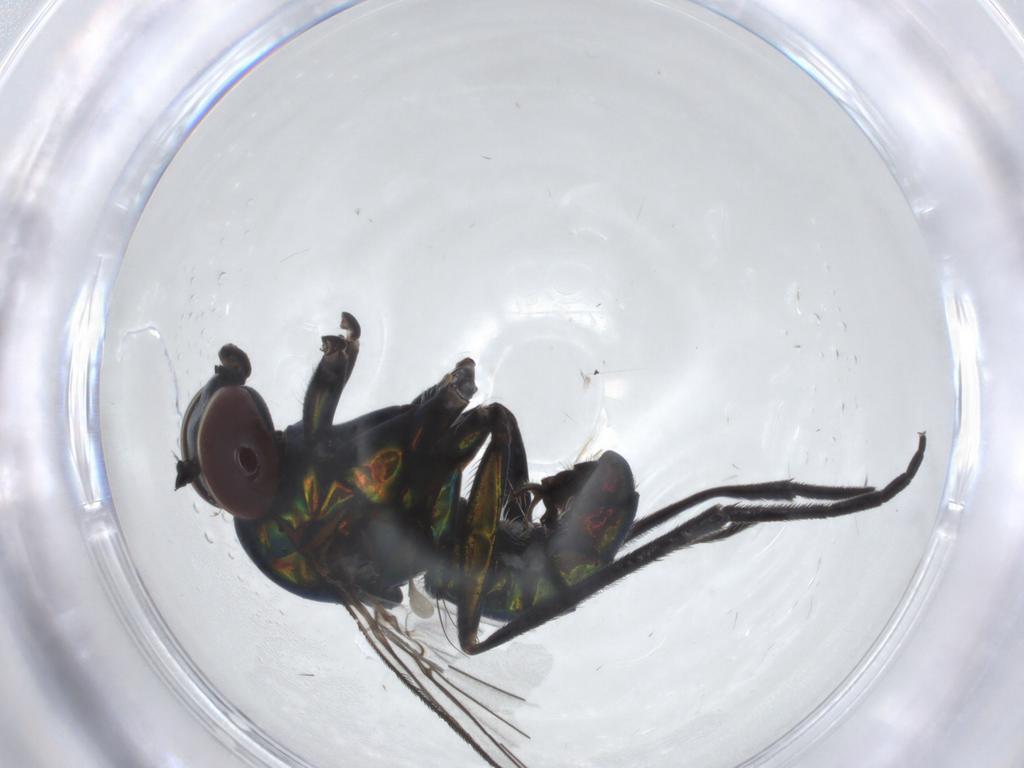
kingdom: Animalia
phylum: Arthropoda
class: Insecta
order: Diptera
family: Dolichopodidae
